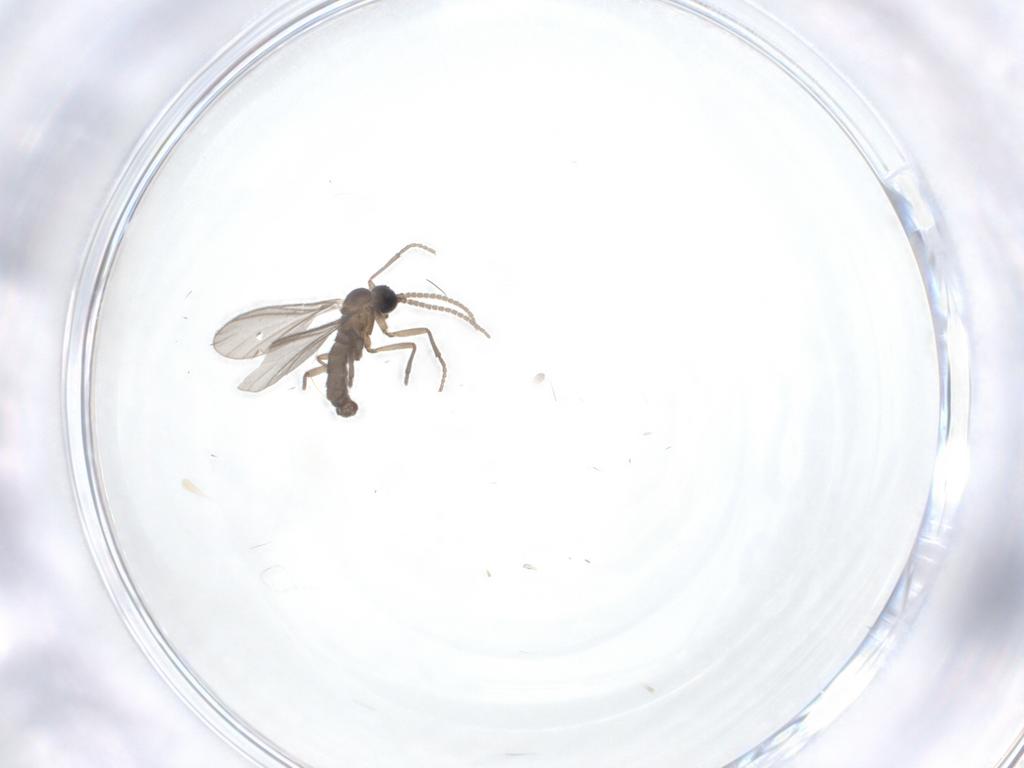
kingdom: Animalia
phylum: Arthropoda
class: Insecta
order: Diptera
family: Sciaridae
